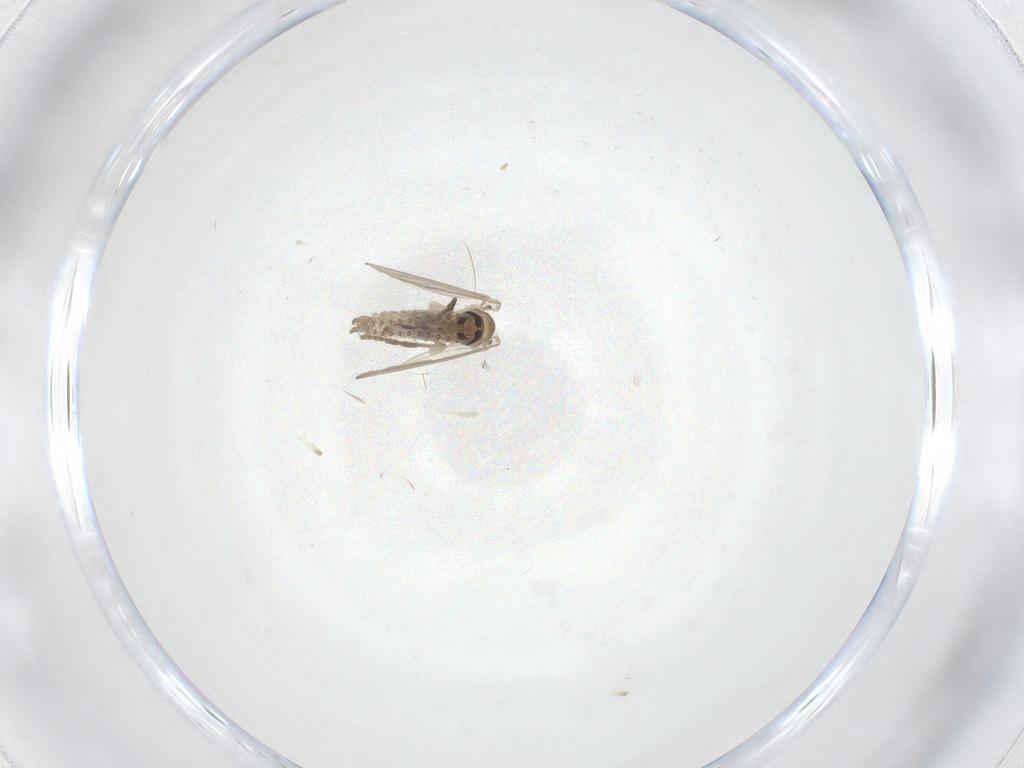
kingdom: Animalia
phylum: Arthropoda
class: Insecta
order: Diptera
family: Psychodidae
